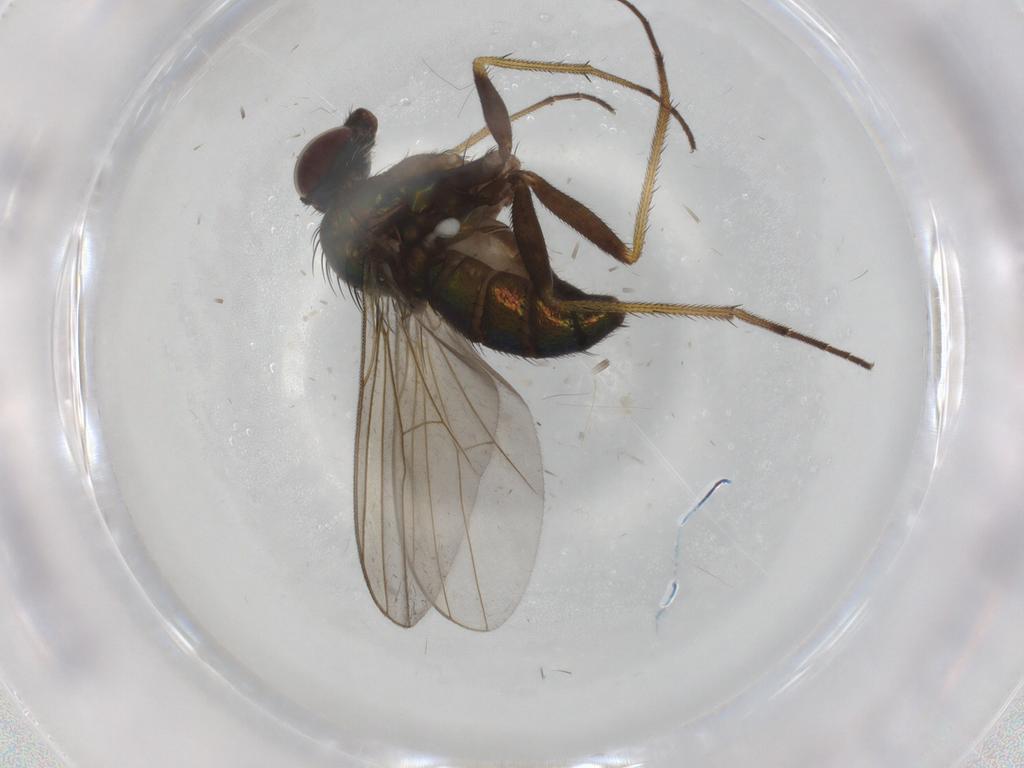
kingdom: Animalia
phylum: Arthropoda
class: Insecta
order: Diptera
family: Dolichopodidae
